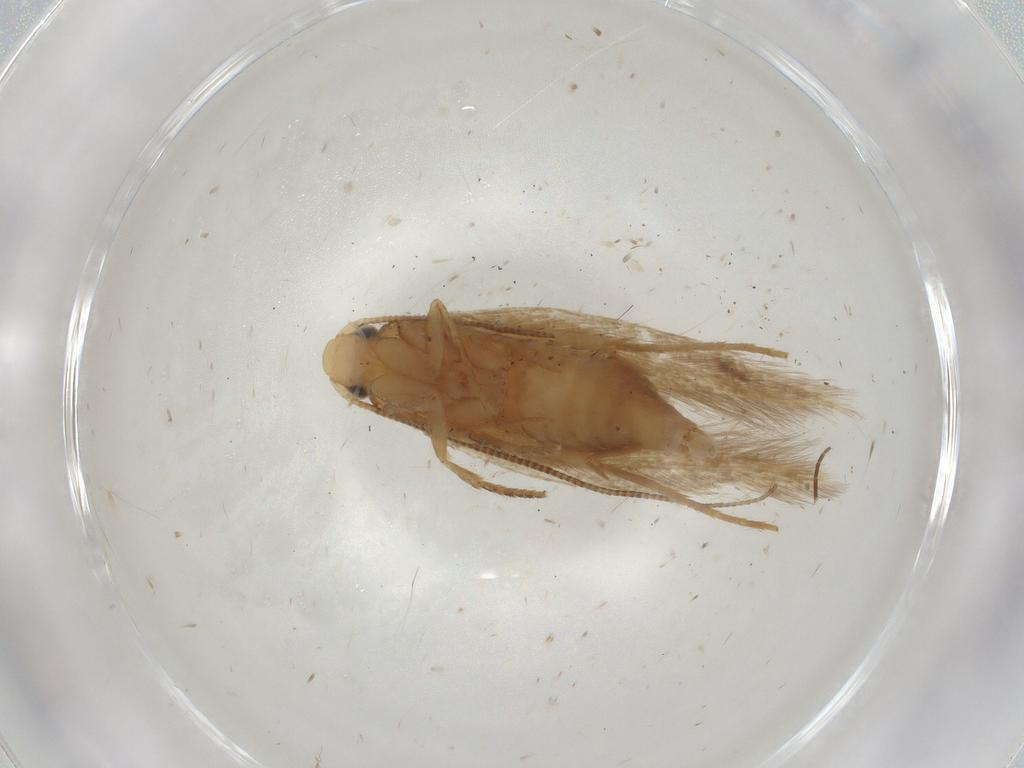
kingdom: Animalia
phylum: Arthropoda
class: Insecta
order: Lepidoptera
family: Tineidae
